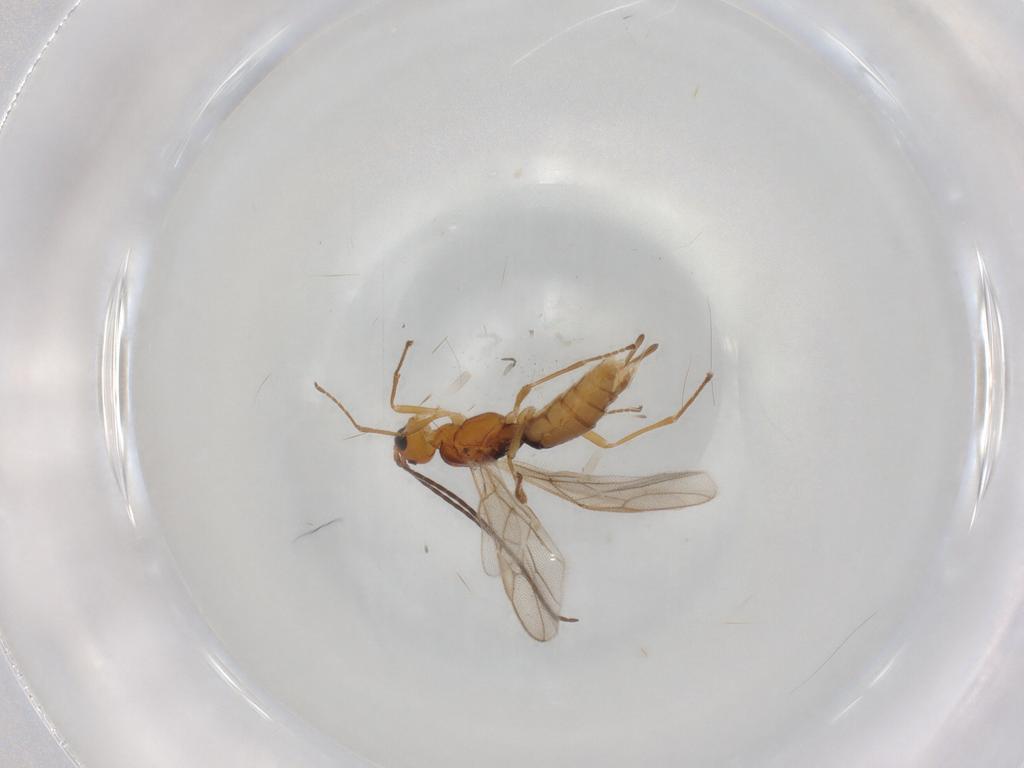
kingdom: Animalia
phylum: Arthropoda
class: Insecta
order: Hymenoptera
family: Braconidae
